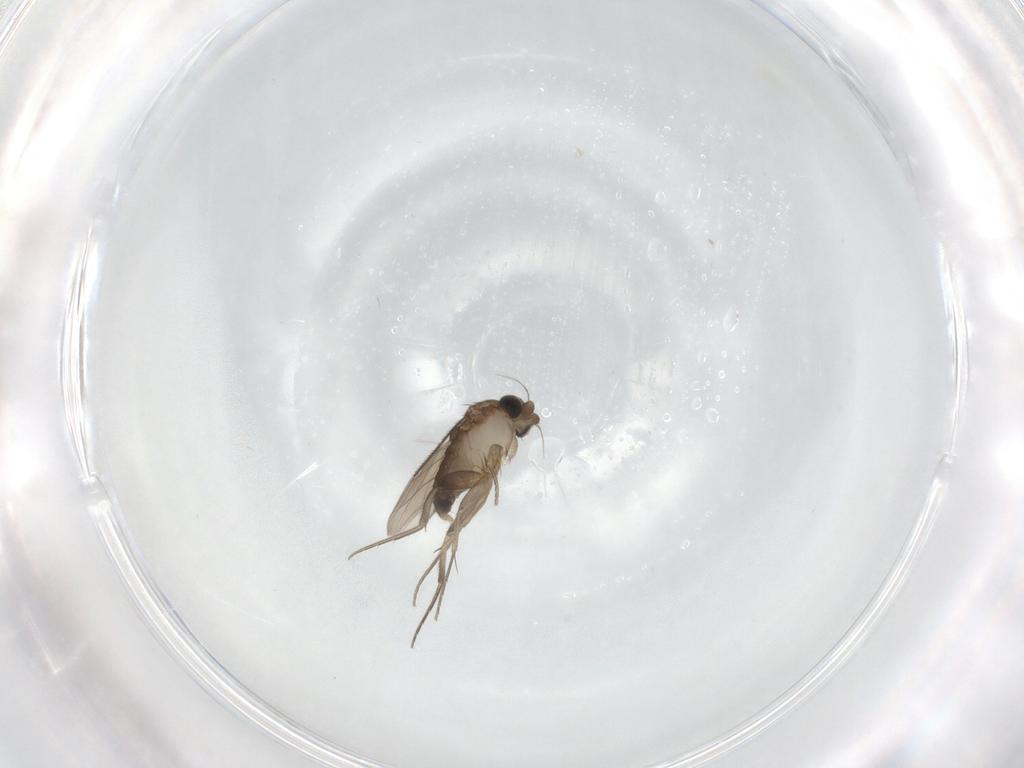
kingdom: Animalia
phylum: Arthropoda
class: Insecta
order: Diptera
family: Phoridae
